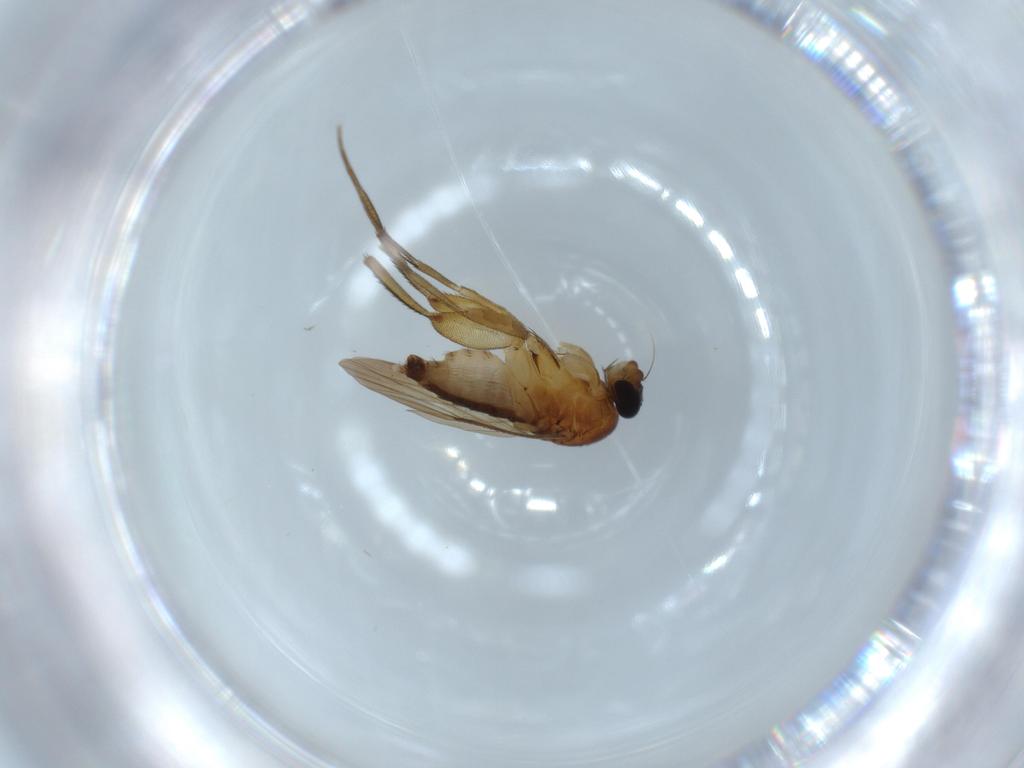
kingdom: Animalia
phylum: Arthropoda
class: Insecta
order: Diptera
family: Phoridae
